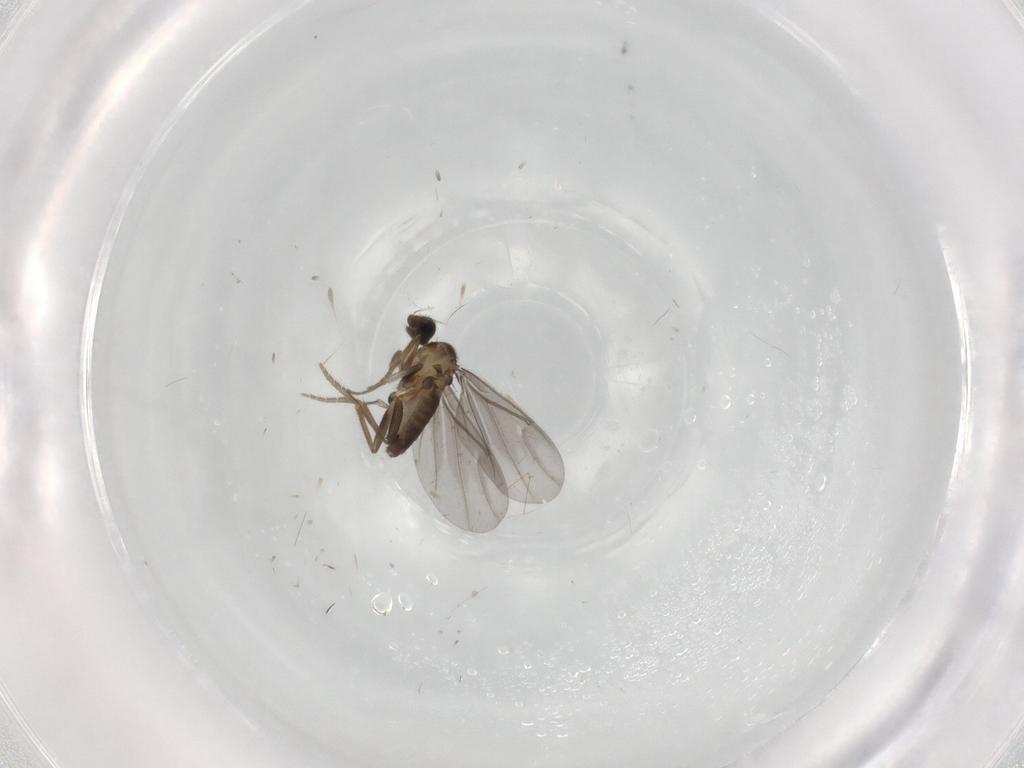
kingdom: Animalia
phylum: Arthropoda
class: Insecta
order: Diptera
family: Phoridae
